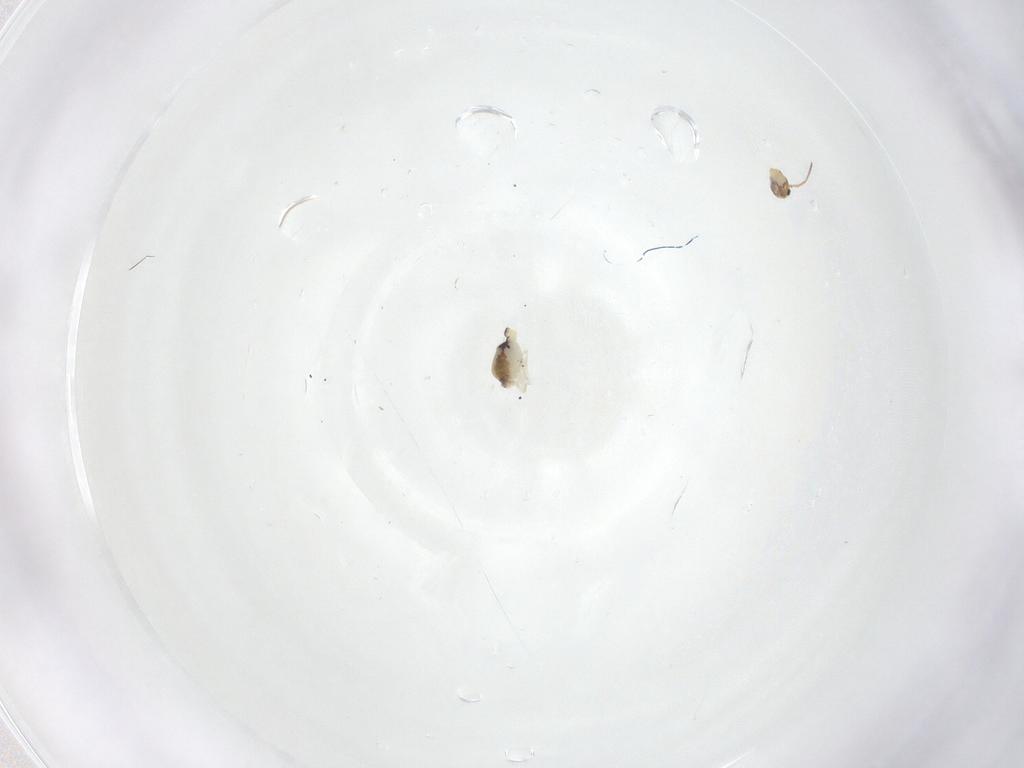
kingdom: Animalia
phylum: Arthropoda
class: Collembola
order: Symphypleona
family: Bourletiellidae
